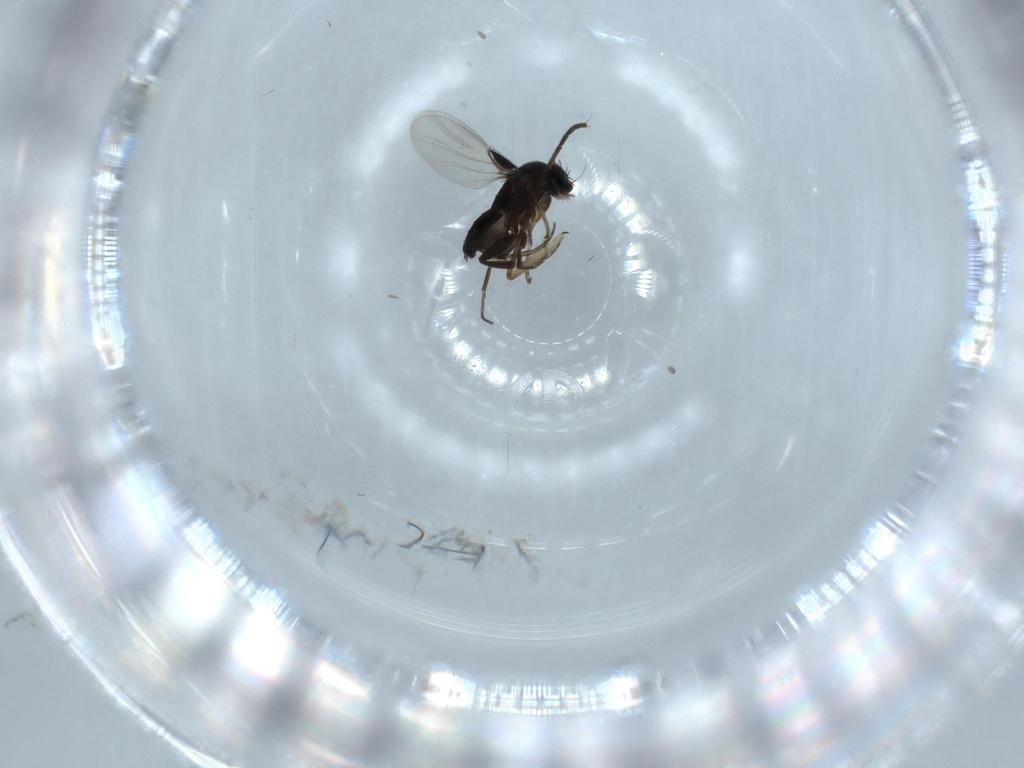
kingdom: Animalia
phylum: Arthropoda
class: Insecta
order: Diptera
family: Phoridae
